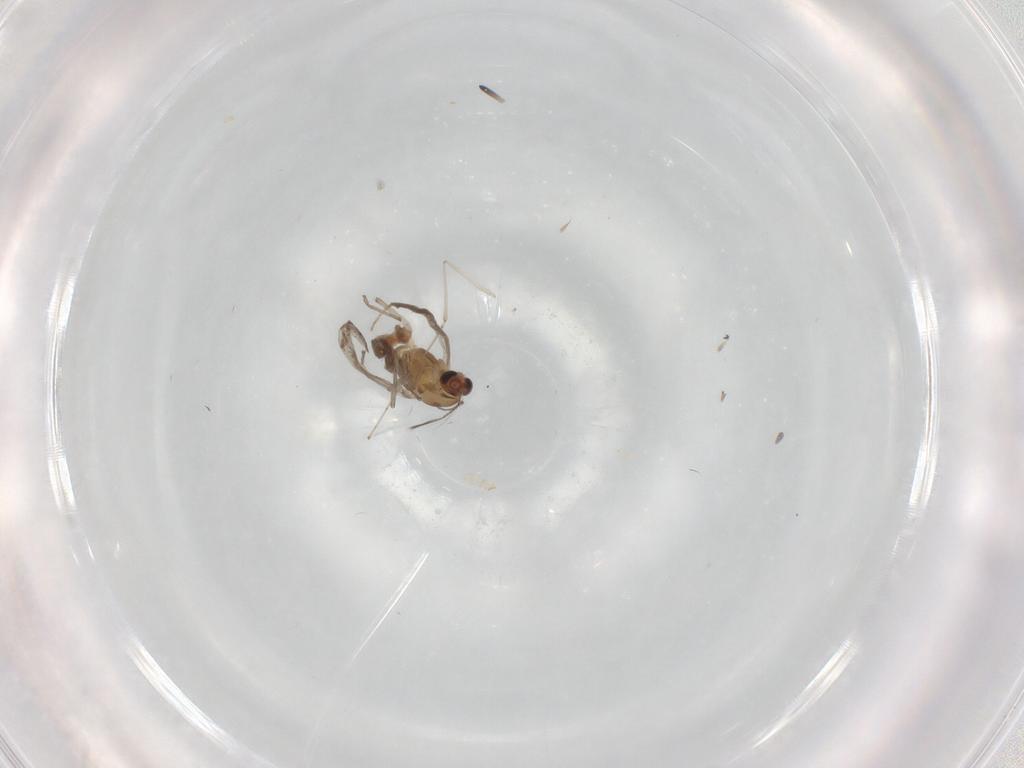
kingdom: Animalia
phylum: Arthropoda
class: Insecta
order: Diptera
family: Chironomidae
